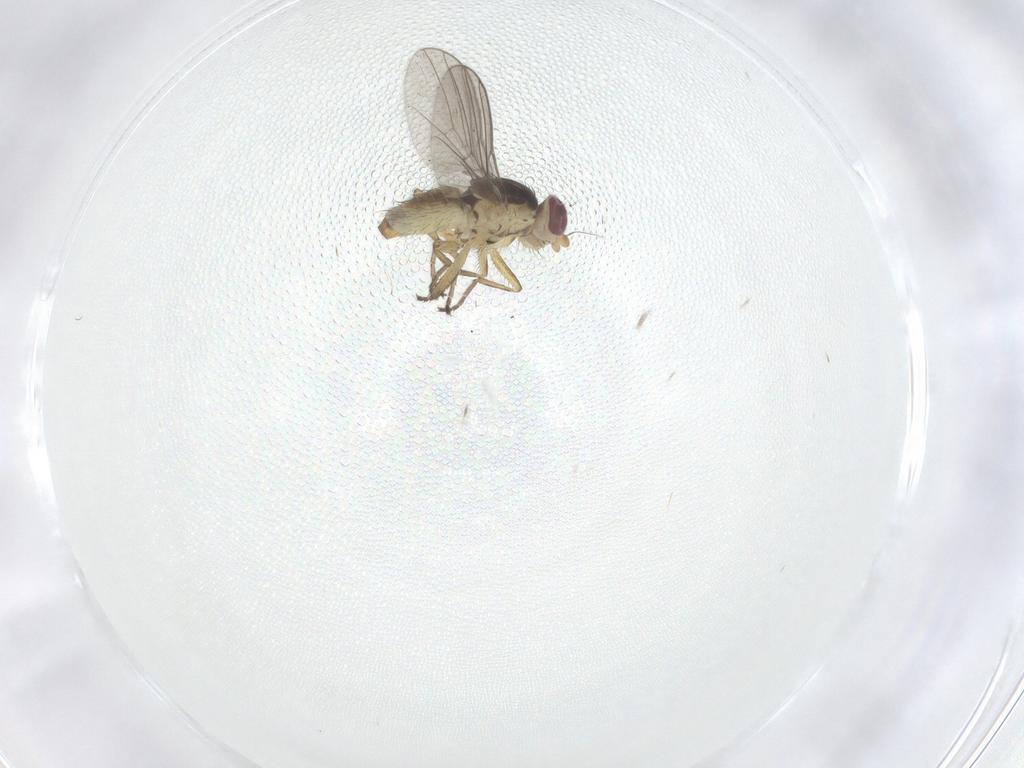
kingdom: Animalia
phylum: Arthropoda
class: Insecta
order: Diptera
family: Agromyzidae
